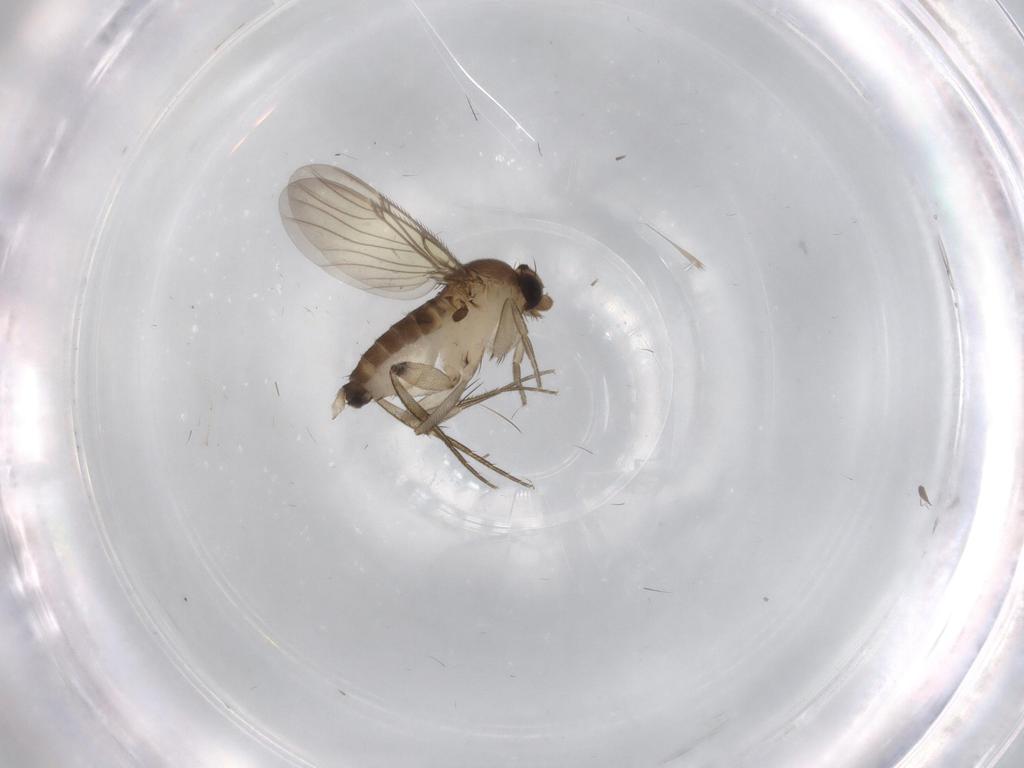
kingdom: Animalia
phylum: Arthropoda
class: Insecta
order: Diptera
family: Phoridae
